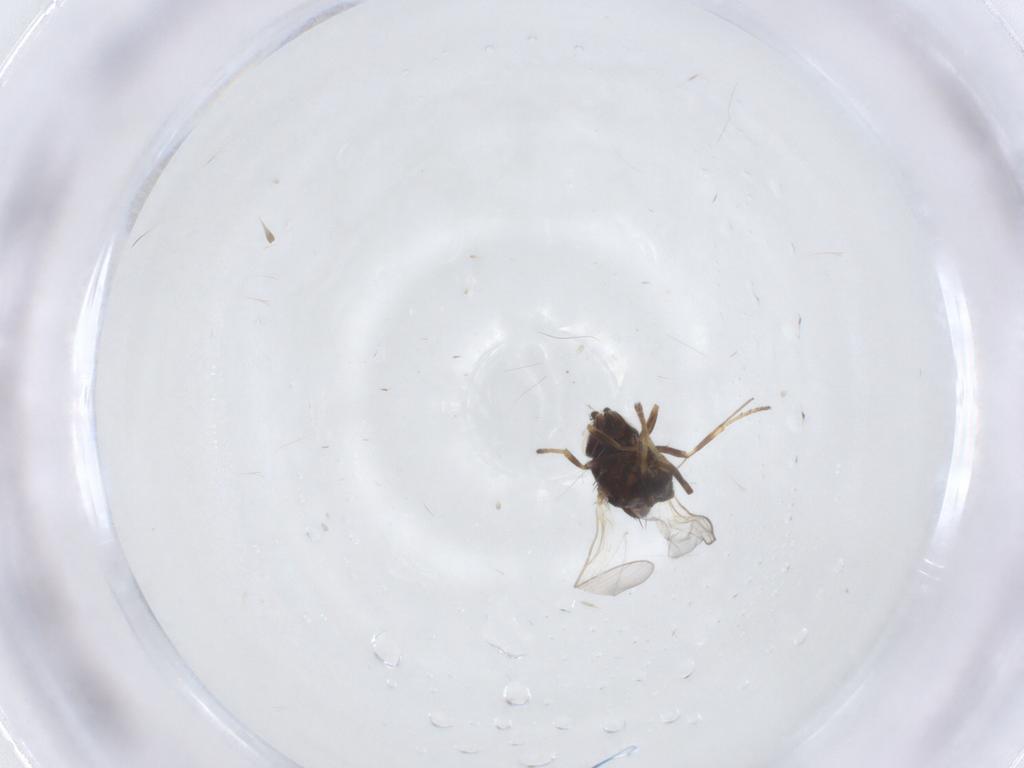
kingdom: Animalia
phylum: Arthropoda
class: Insecta
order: Diptera
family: Chloropidae
